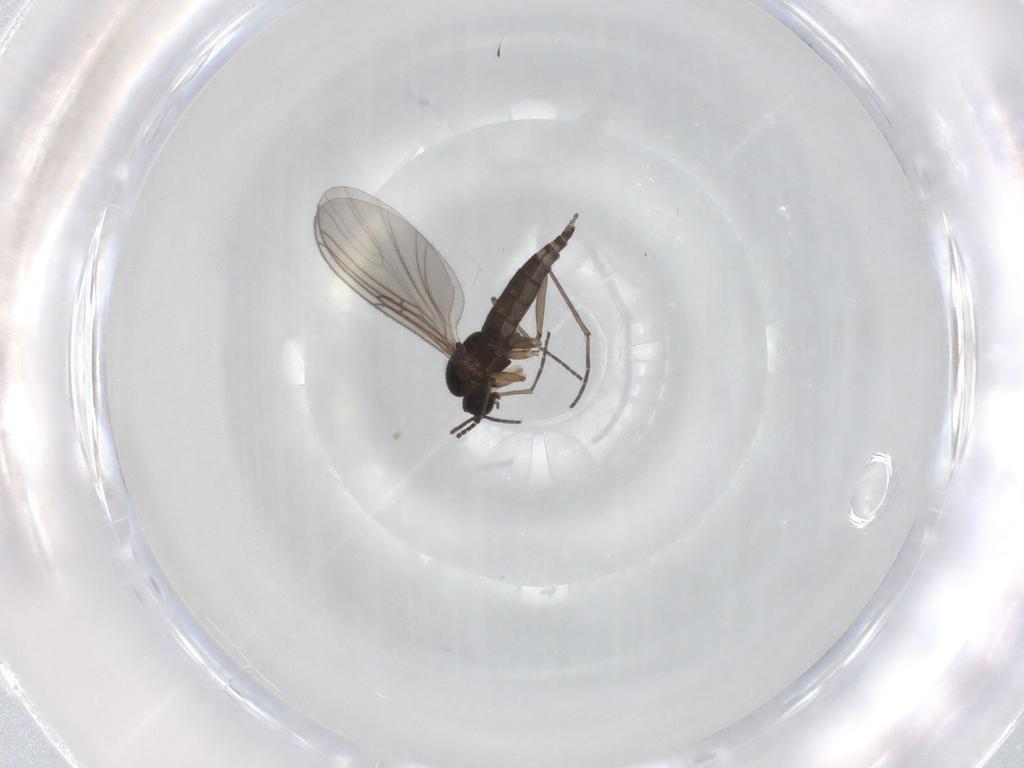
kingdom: Animalia
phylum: Arthropoda
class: Insecta
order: Diptera
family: Sciaridae
